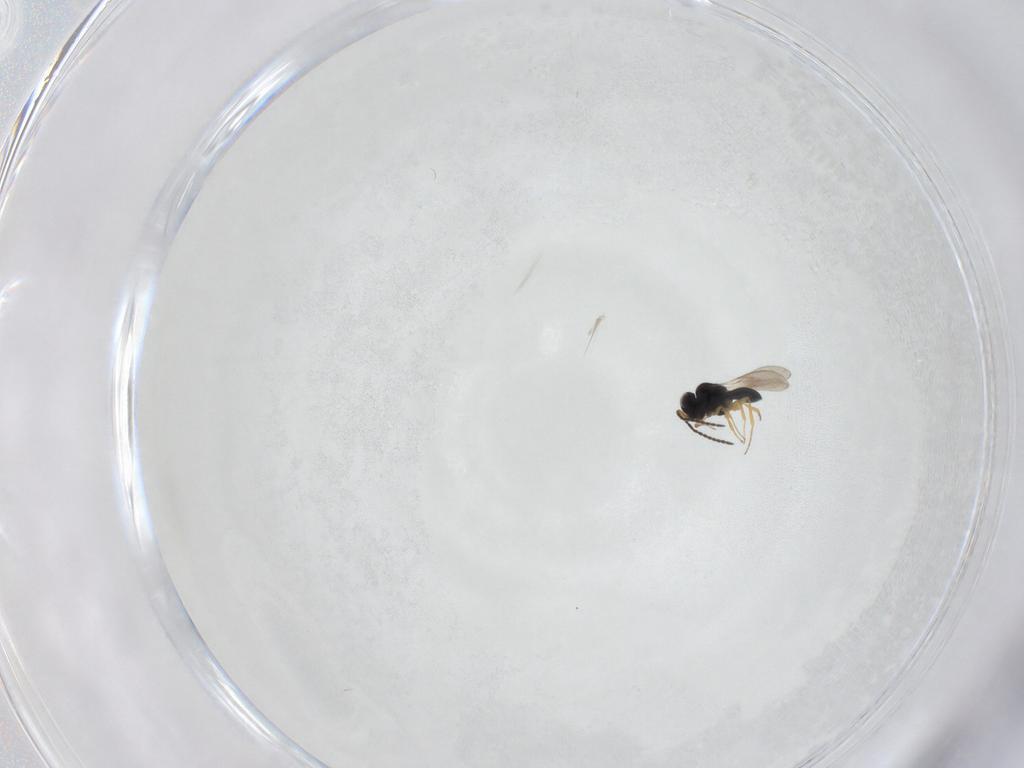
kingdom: Animalia
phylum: Arthropoda
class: Insecta
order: Hymenoptera
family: Scelionidae
